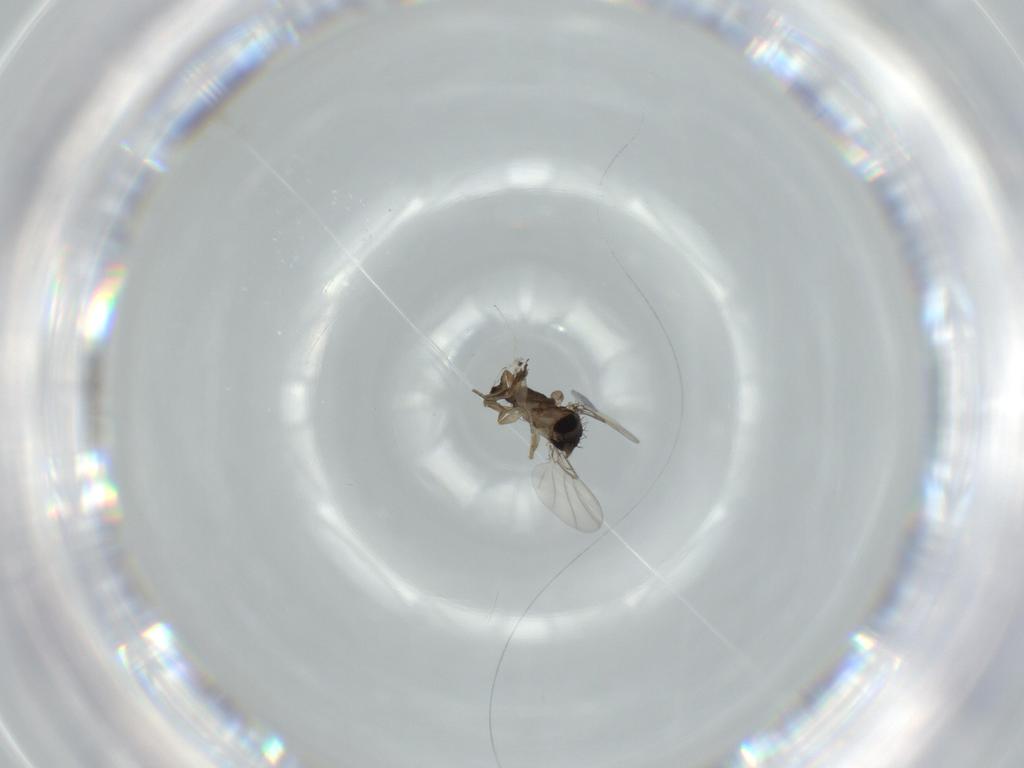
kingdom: Animalia
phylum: Arthropoda
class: Insecta
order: Diptera
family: Phoridae
